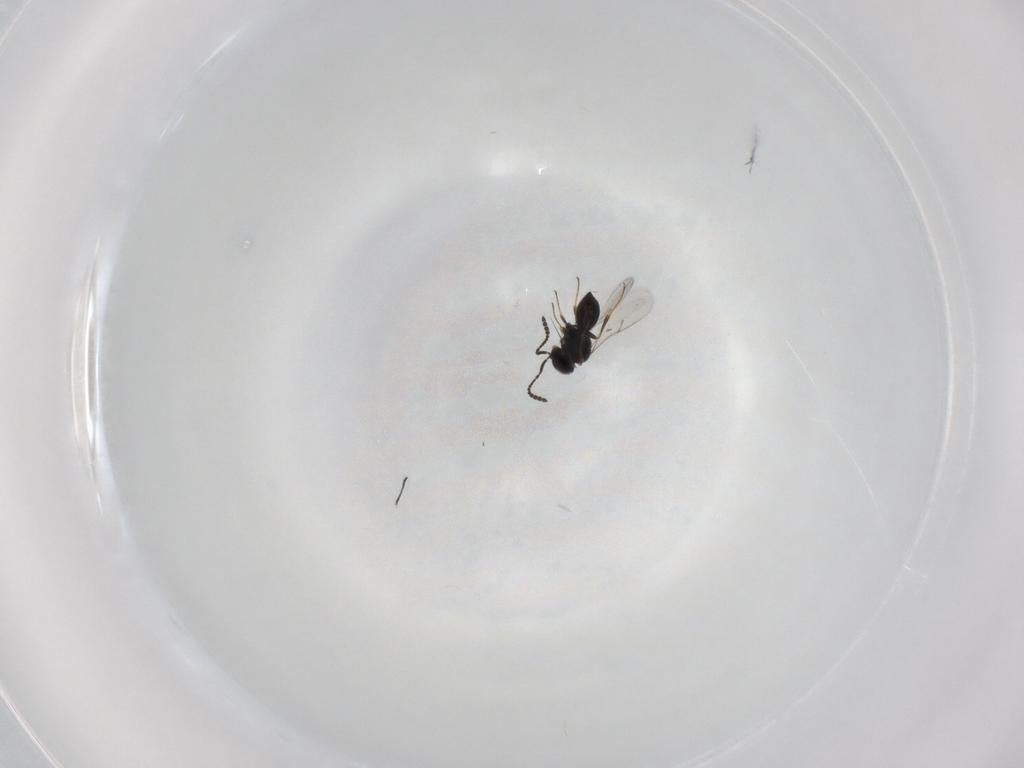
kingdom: Animalia
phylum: Arthropoda
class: Insecta
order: Hymenoptera
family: Scelionidae
